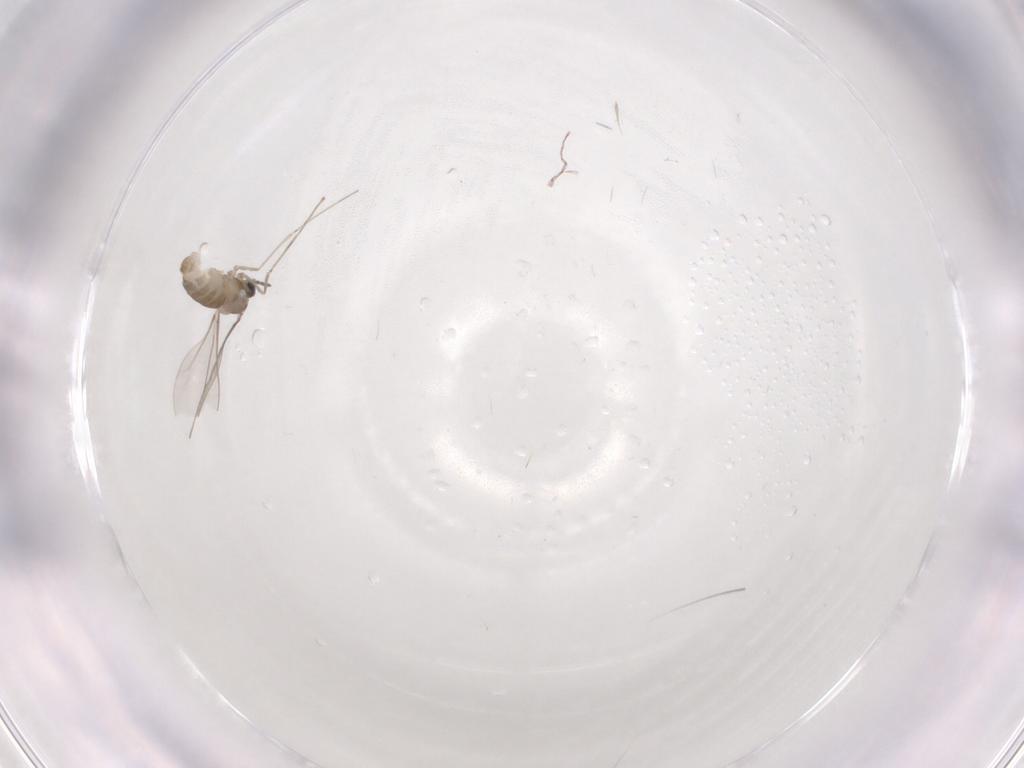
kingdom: Animalia
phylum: Arthropoda
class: Insecta
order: Diptera
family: Cecidomyiidae
